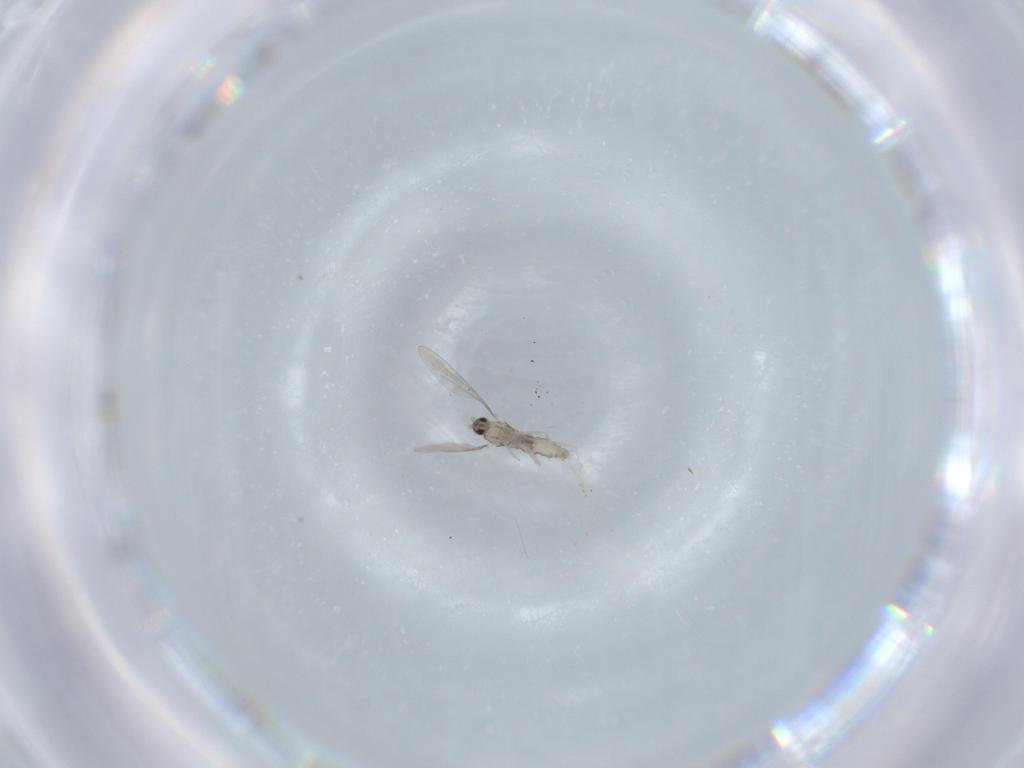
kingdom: Animalia
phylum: Arthropoda
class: Insecta
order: Diptera
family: Cecidomyiidae
